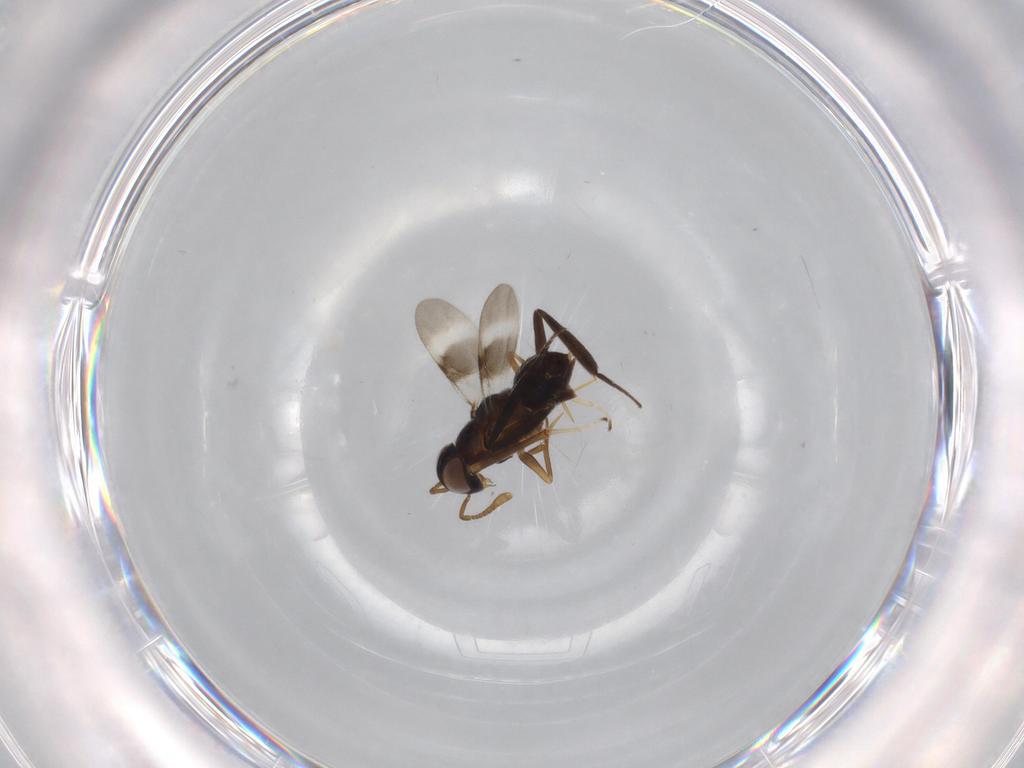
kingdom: Animalia
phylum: Arthropoda
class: Insecta
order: Hymenoptera
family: Encyrtidae
